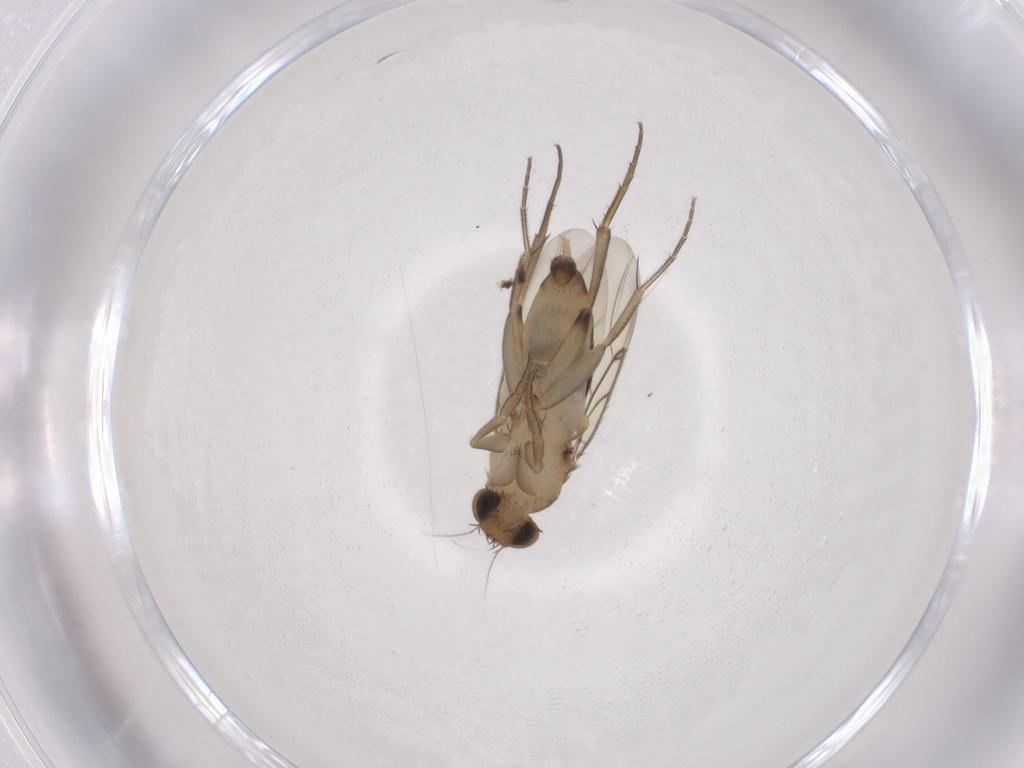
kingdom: Animalia
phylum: Arthropoda
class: Insecta
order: Diptera
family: Phoridae
